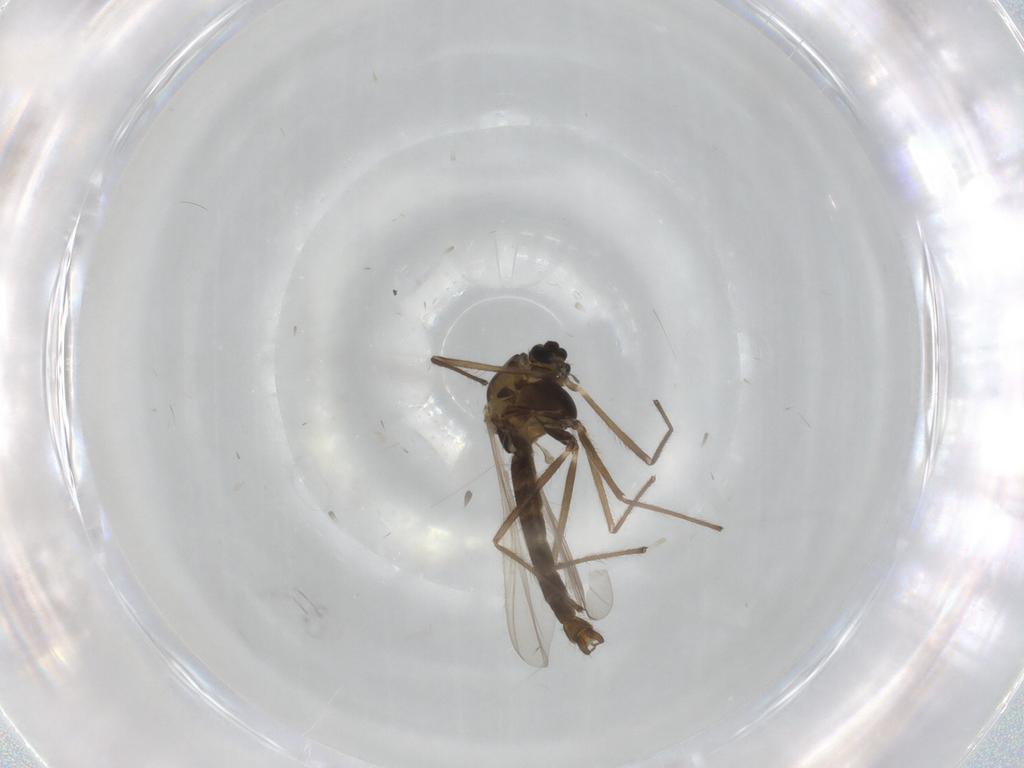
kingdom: Animalia
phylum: Arthropoda
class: Insecta
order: Diptera
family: Chironomidae
